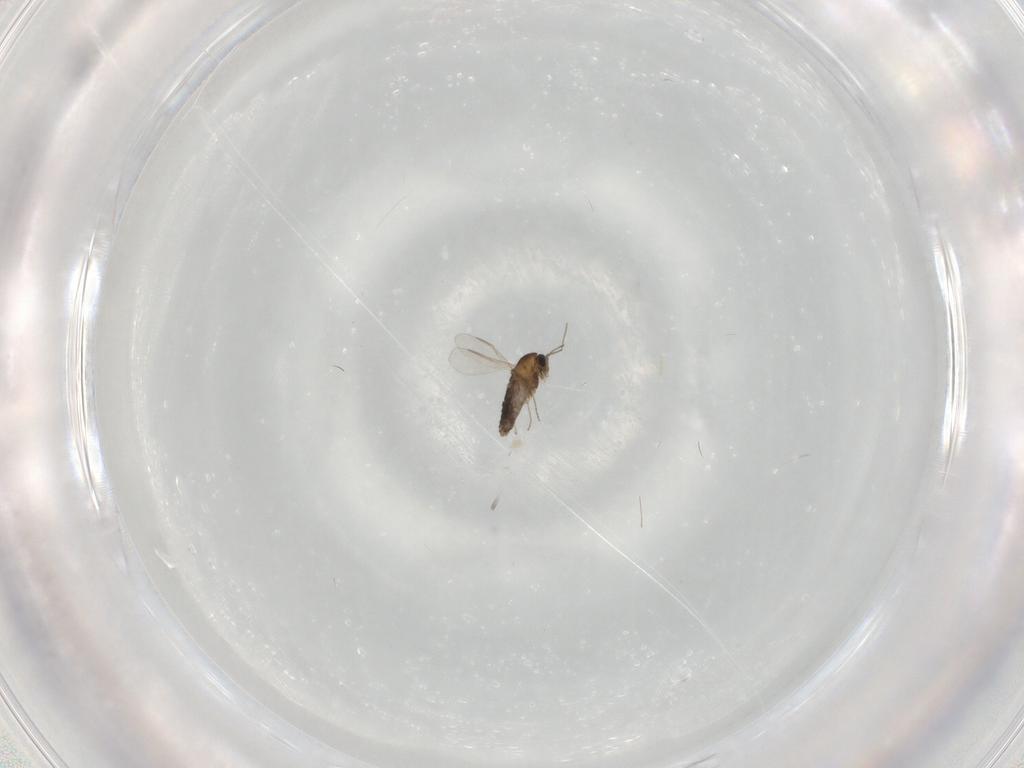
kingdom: Animalia
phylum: Arthropoda
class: Insecta
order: Diptera
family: Chironomidae
